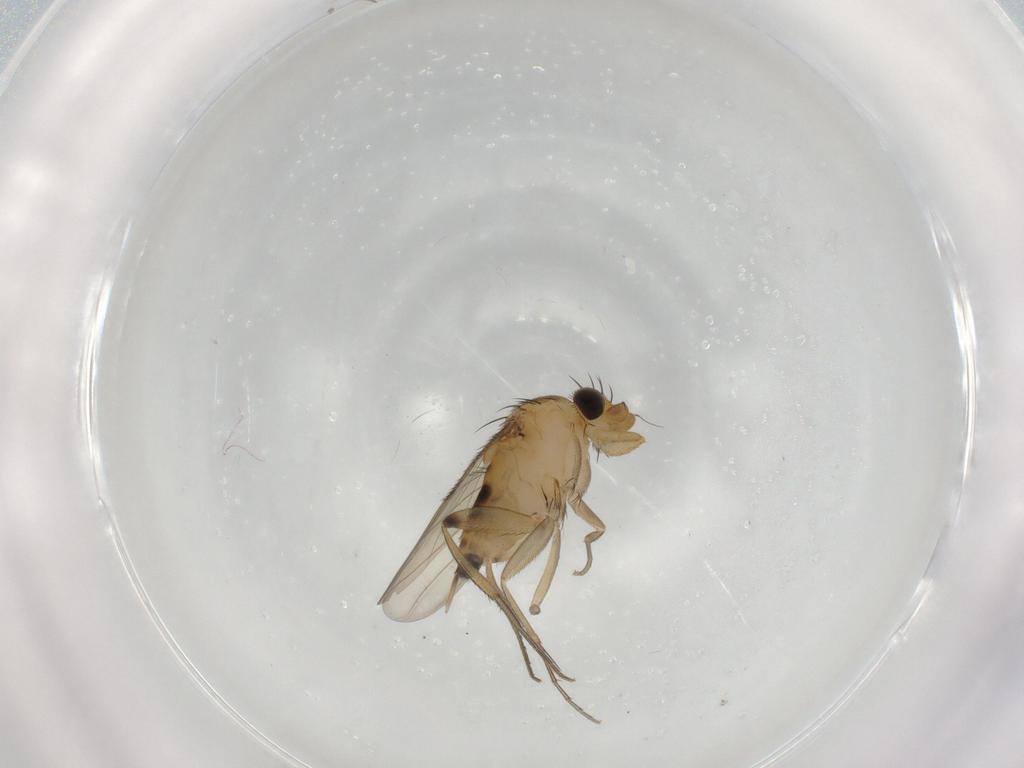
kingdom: Animalia
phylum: Arthropoda
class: Insecta
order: Diptera
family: Phoridae
